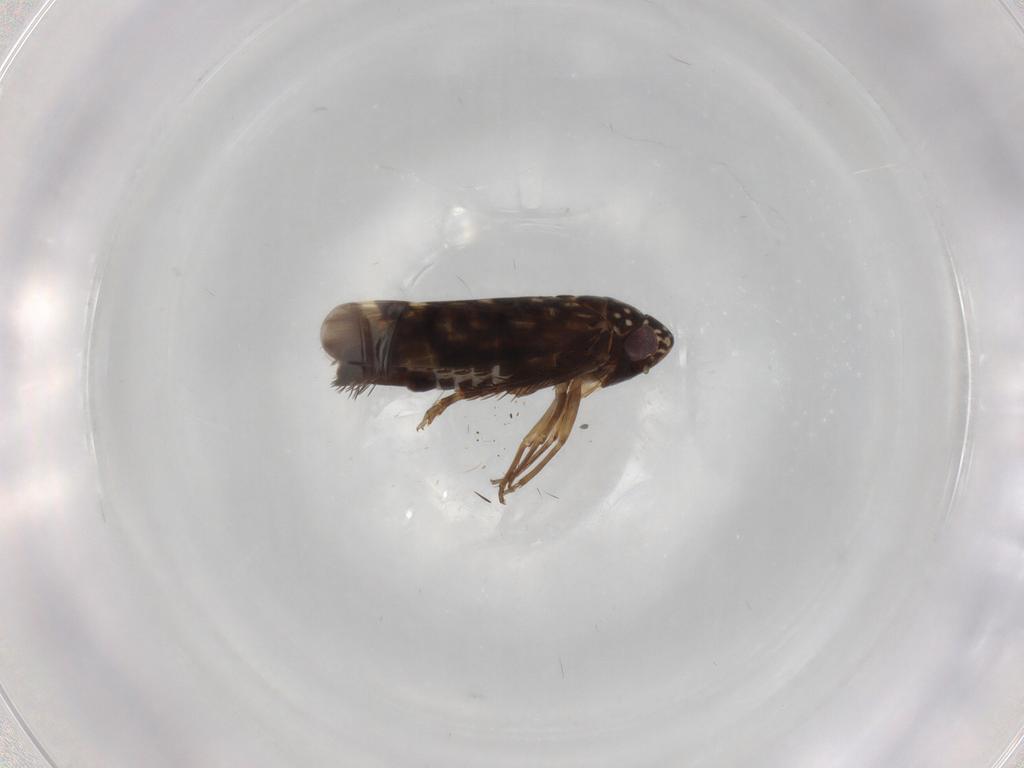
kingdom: Animalia
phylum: Arthropoda
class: Insecta
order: Hemiptera
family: Cicadellidae
